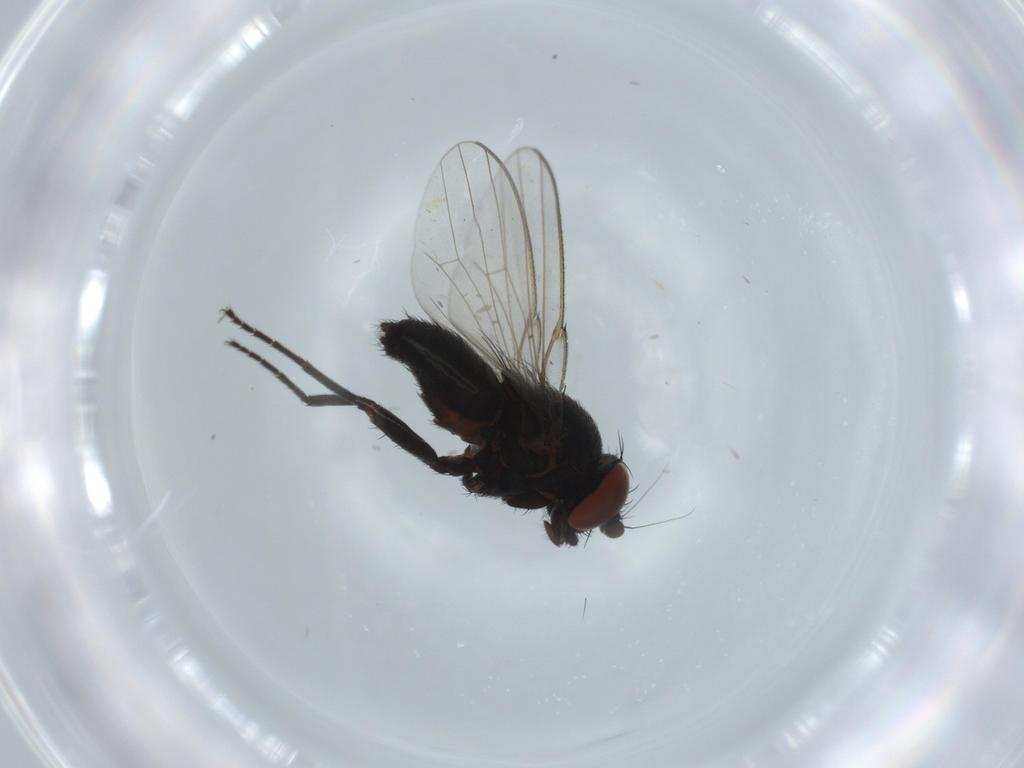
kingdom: Animalia
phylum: Arthropoda
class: Insecta
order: Diptera
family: Milichiidae
